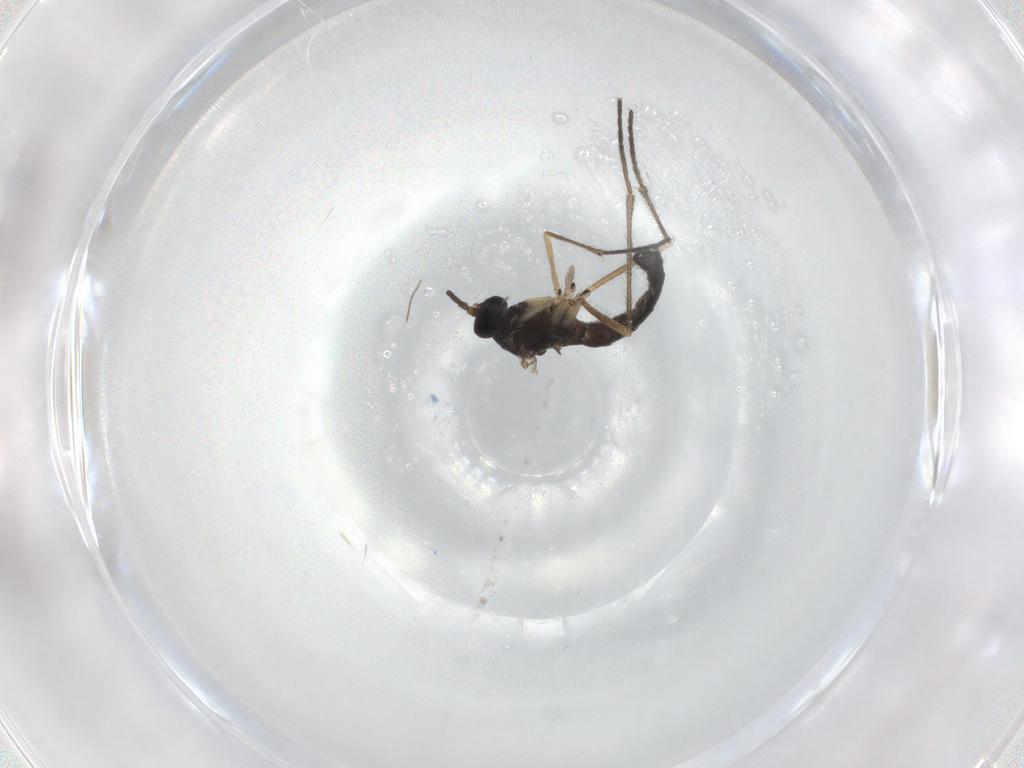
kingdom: Animalia
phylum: Arthropoda
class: Insecta
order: Diptera
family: Sciaridae
